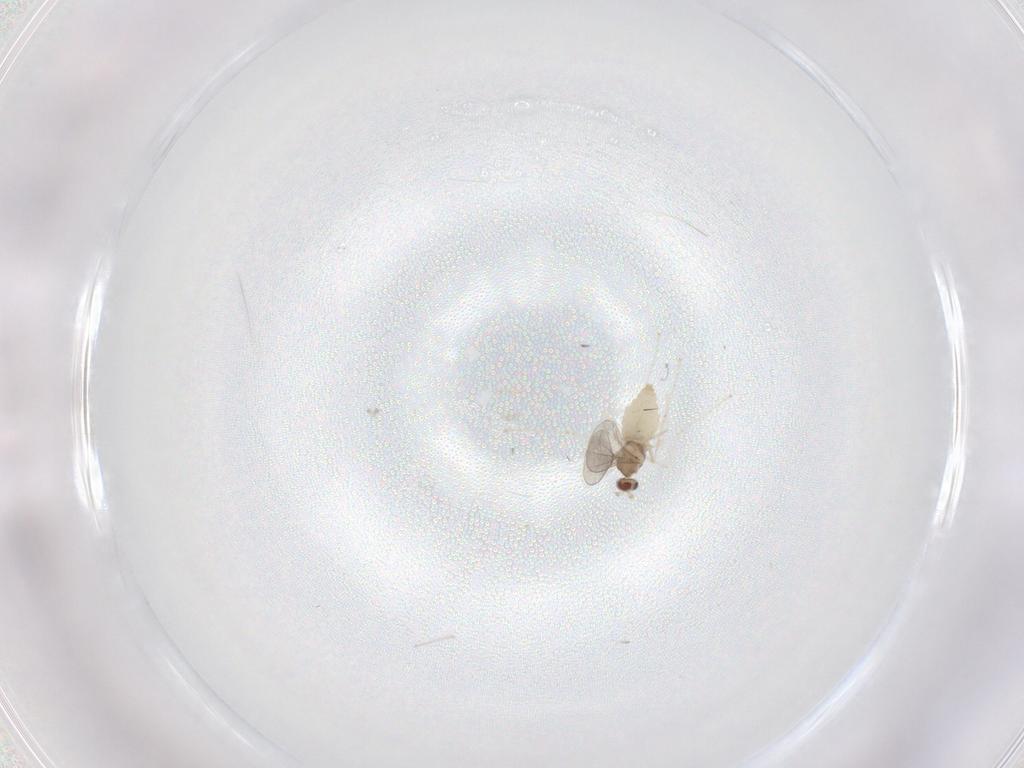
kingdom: Animalia
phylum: Arthropoda
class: Insecta
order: Diptera
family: Cecidomyiidae
